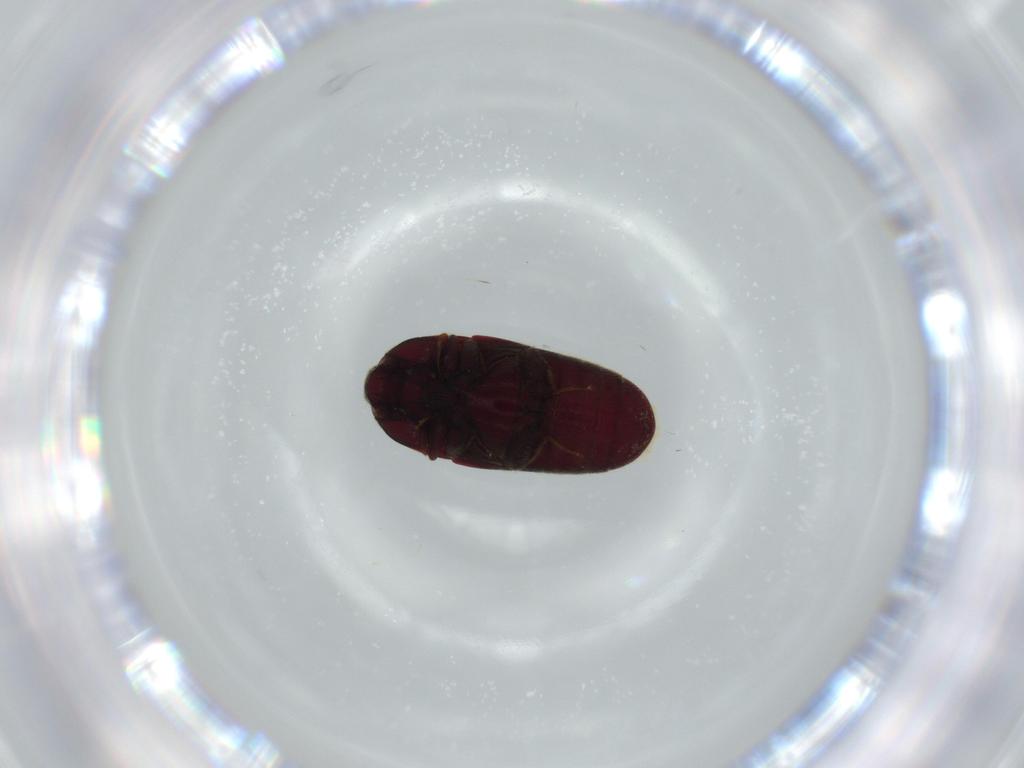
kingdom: Animalia
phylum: Arthropoda
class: Insecta
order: Coleoptera
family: Throscidae
